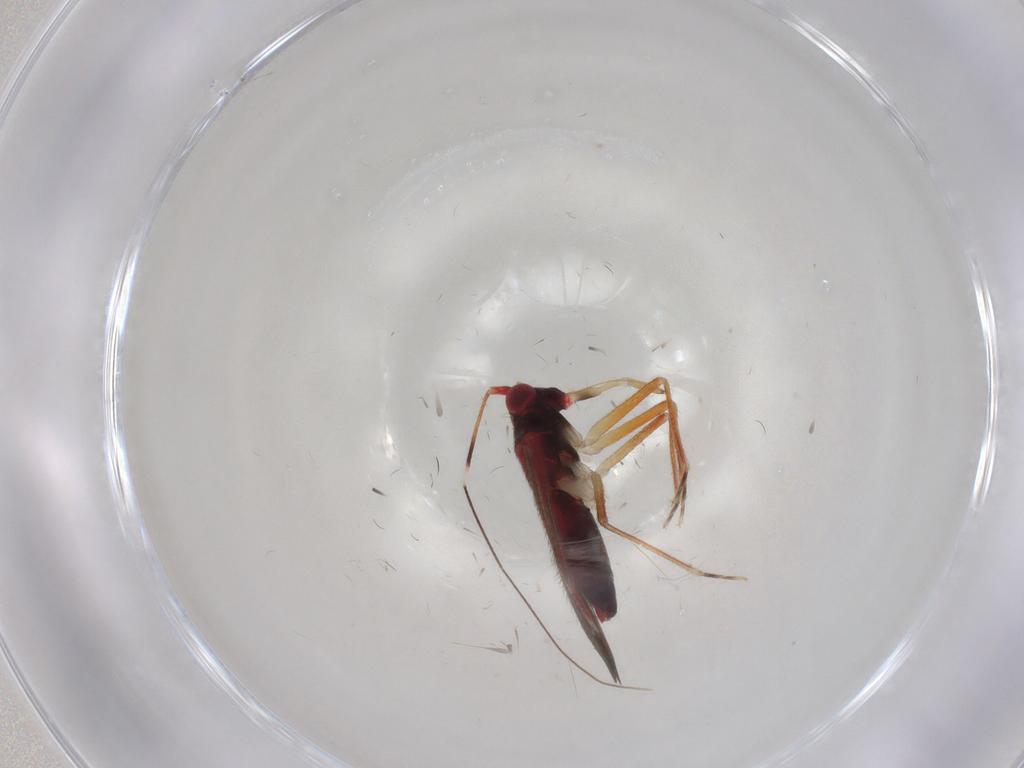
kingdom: Animalia
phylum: Arthropoda
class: Insecta
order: Hemiptera
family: Miridae
